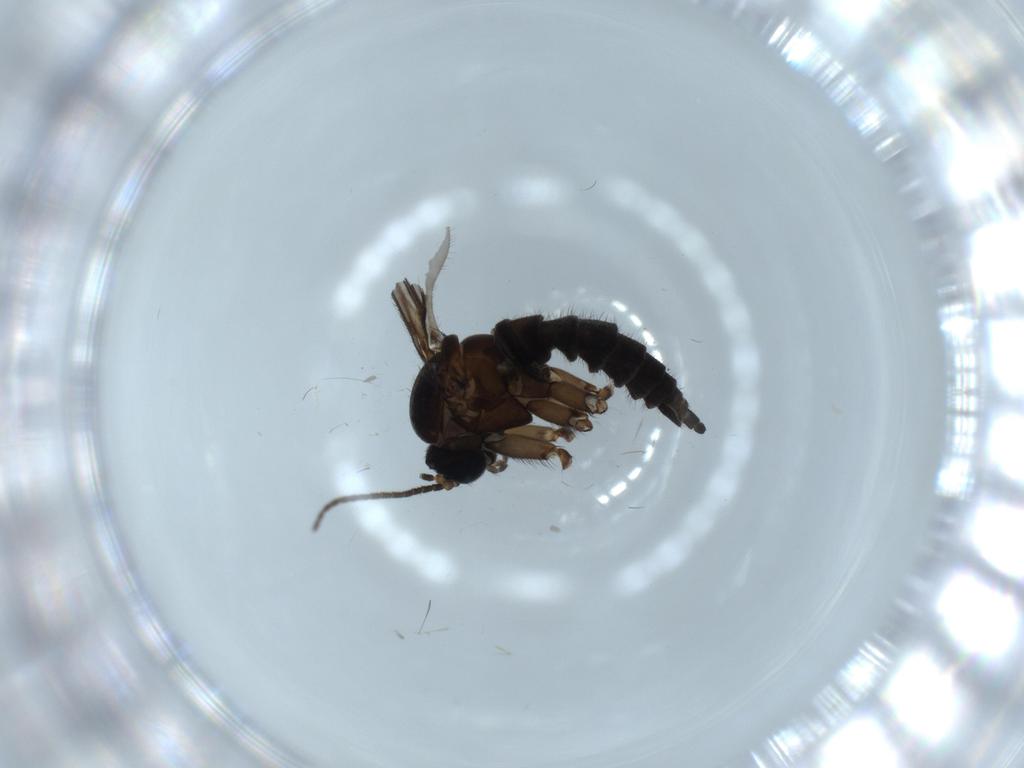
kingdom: Animalia
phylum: Arthropoda
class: Insecta
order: Diptera
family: Sciaridae
